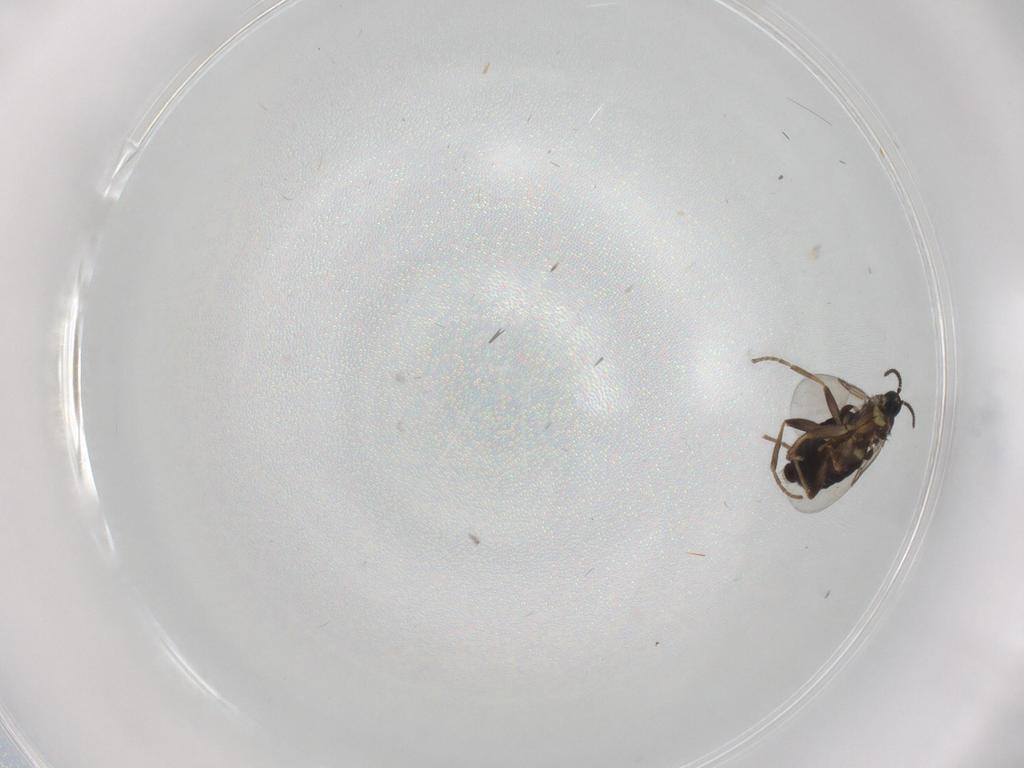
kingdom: Animalia
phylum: Arthropoda
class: Insecta
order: Diptera
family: Scatopsidae
